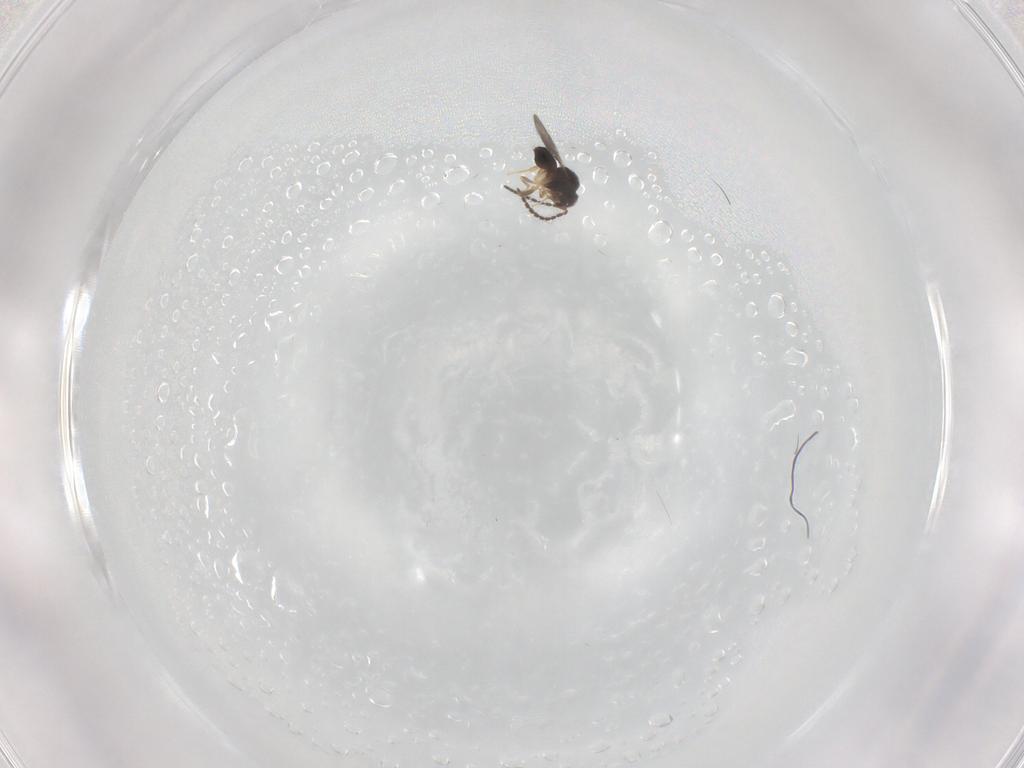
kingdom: Animalia
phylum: Arthropoda
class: Insecta
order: Hymenoptera
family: Ceraphronidae
